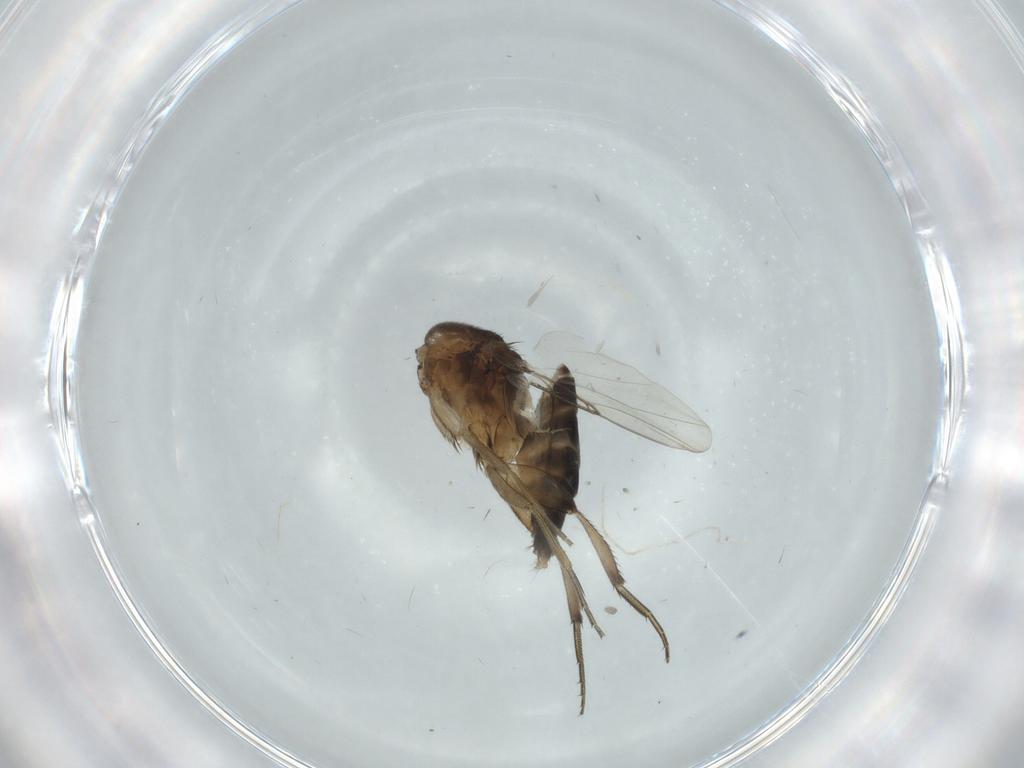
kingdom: Animalia
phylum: Arthropoda
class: Insecta
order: Diptera
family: Phoridae
